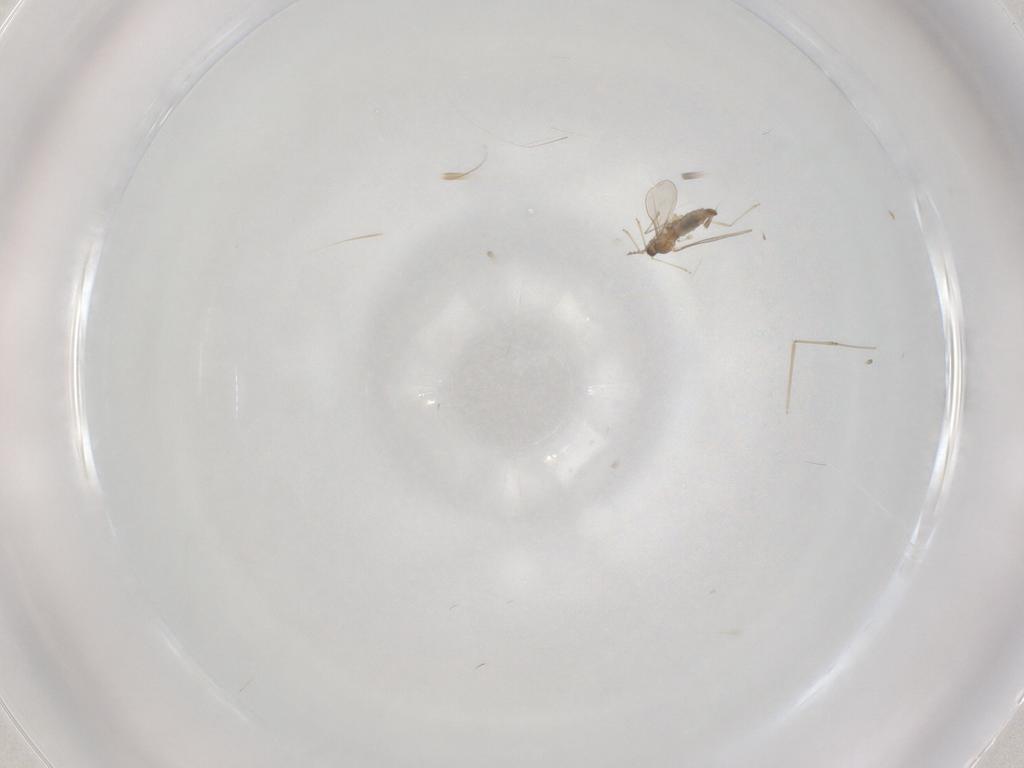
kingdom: Animalia
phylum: Arthropoda
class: Insecta
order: Diptera
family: Cecidomyiidae
